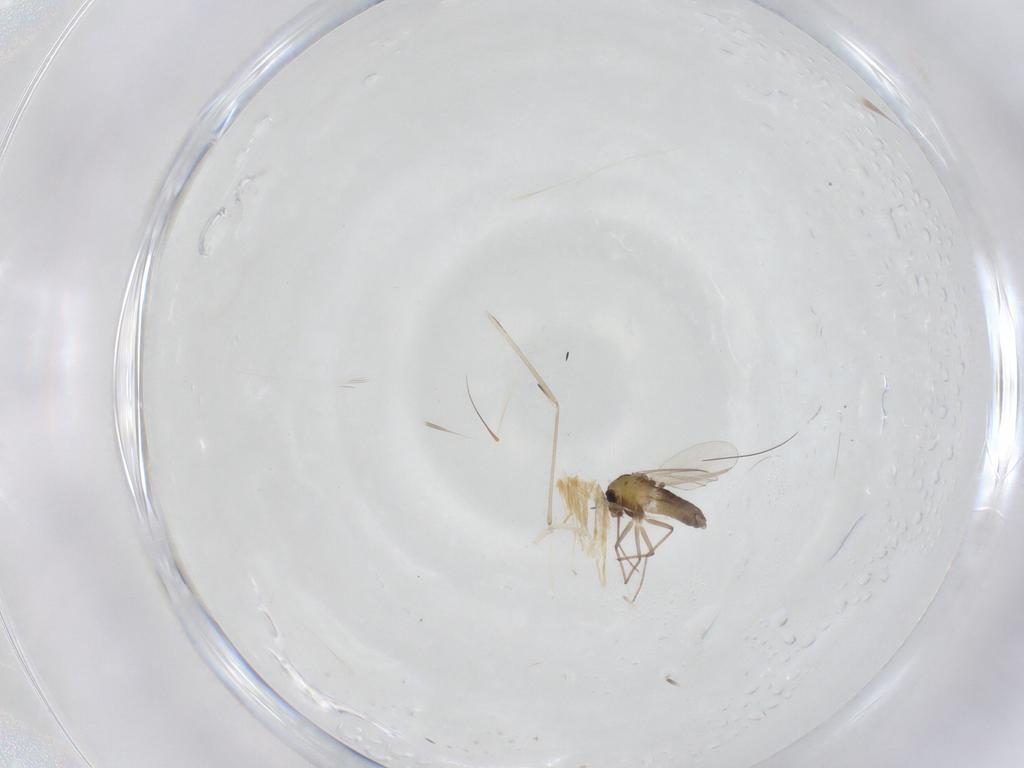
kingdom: Animalia
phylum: Arthropoda
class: Insecta
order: Diptera
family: Chironomidae
